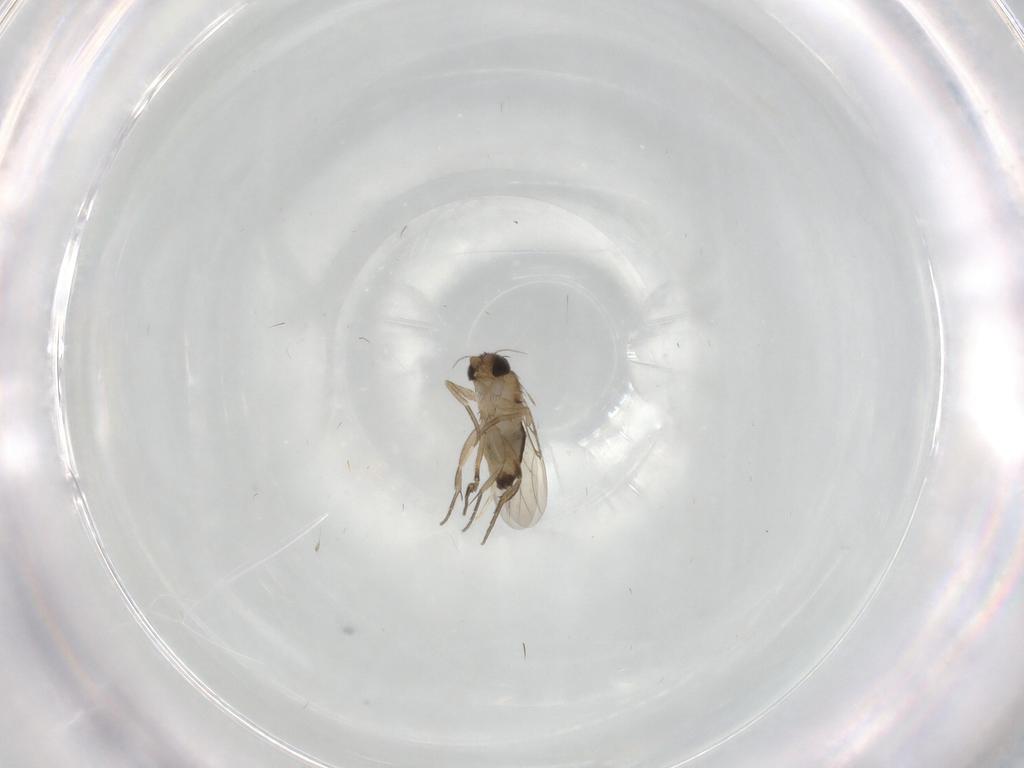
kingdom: Animalia
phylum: Arthropoda
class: Insecta
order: Diptera
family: Phoridae
